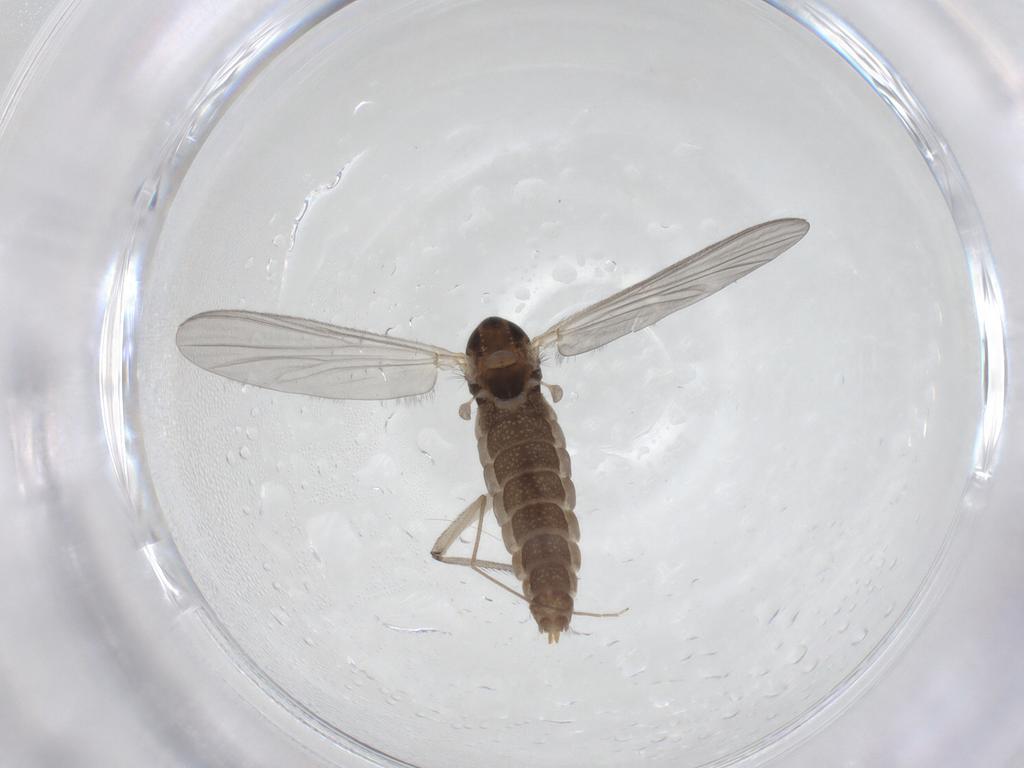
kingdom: Animalia
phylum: Arthropoda
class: Insecta
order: Diptera
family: Chironomidae
